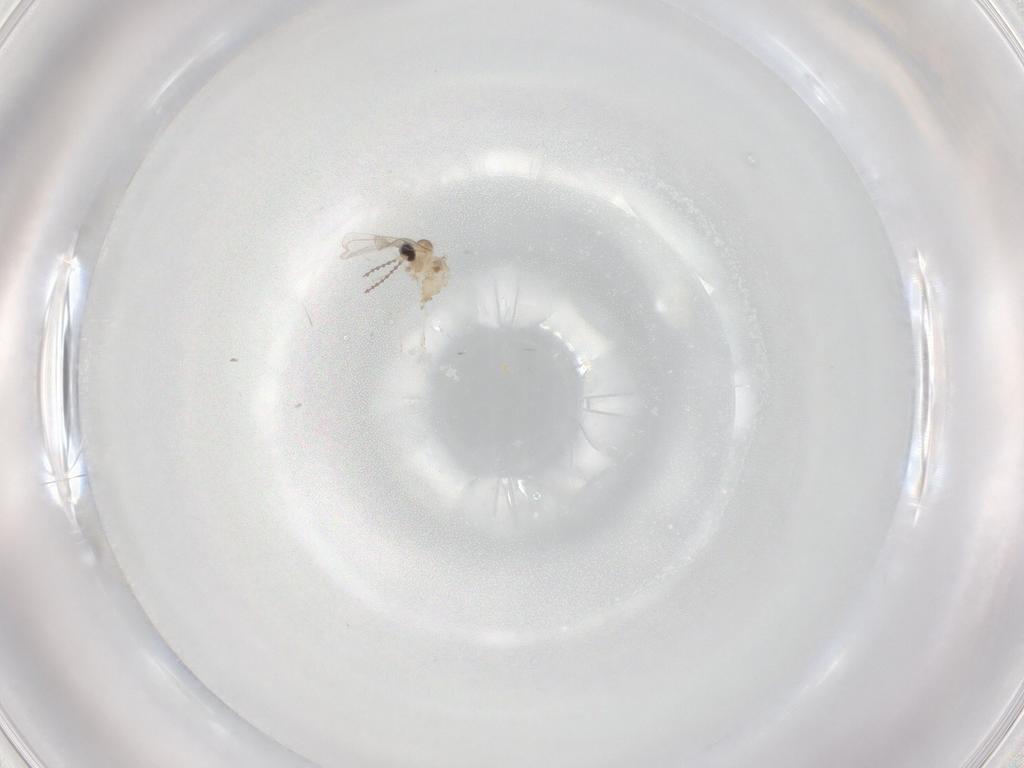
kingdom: Animalia
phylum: Arthropoda
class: Insecta
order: Diptera
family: Cecidomyiidae
